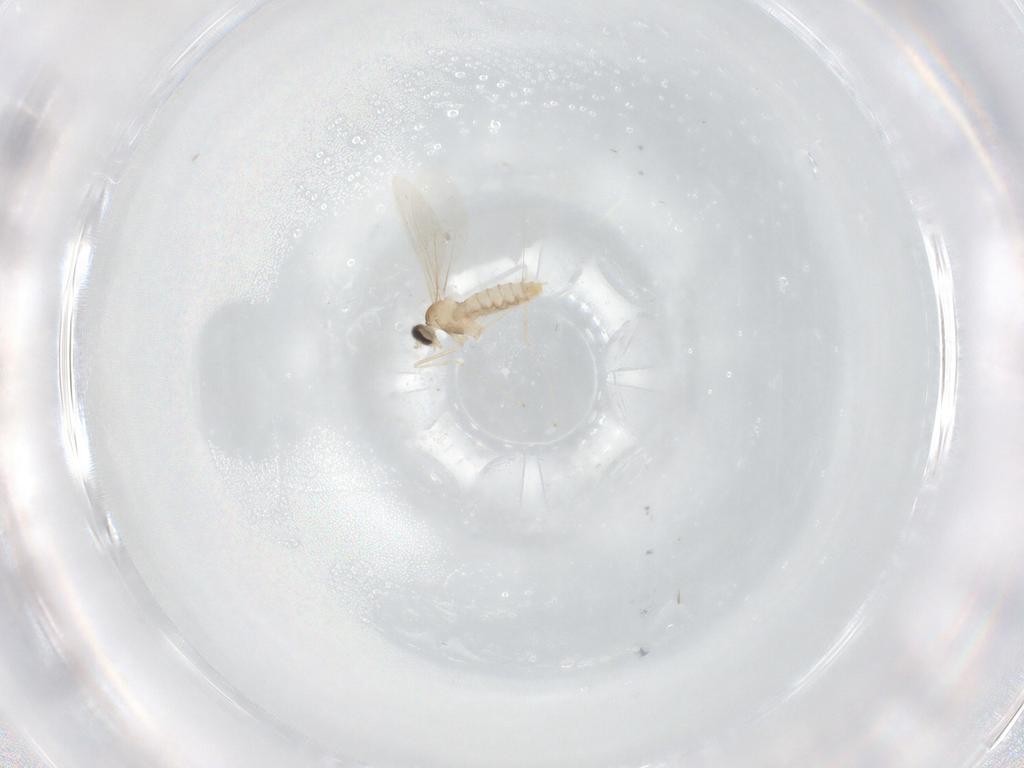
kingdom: Animalia
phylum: Arthropoda
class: Insecta
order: Diptera
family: Cecidomyiidae
